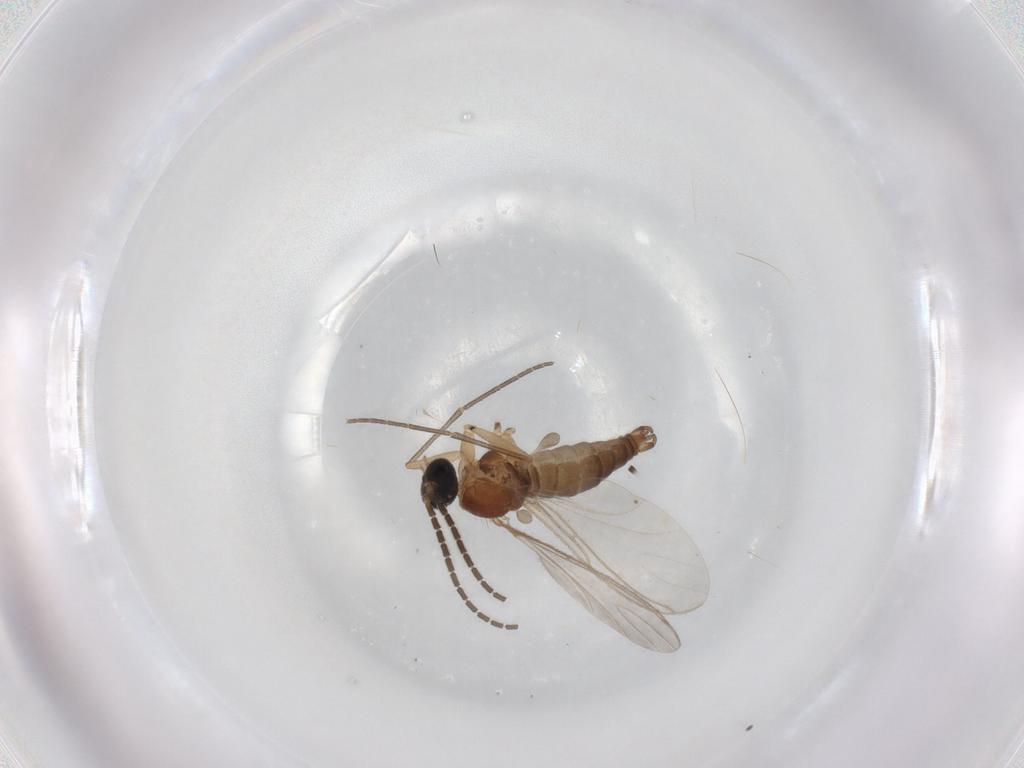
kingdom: Animalia
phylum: Arthropoda
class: Insecta
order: Diptera
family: Sciaridae
